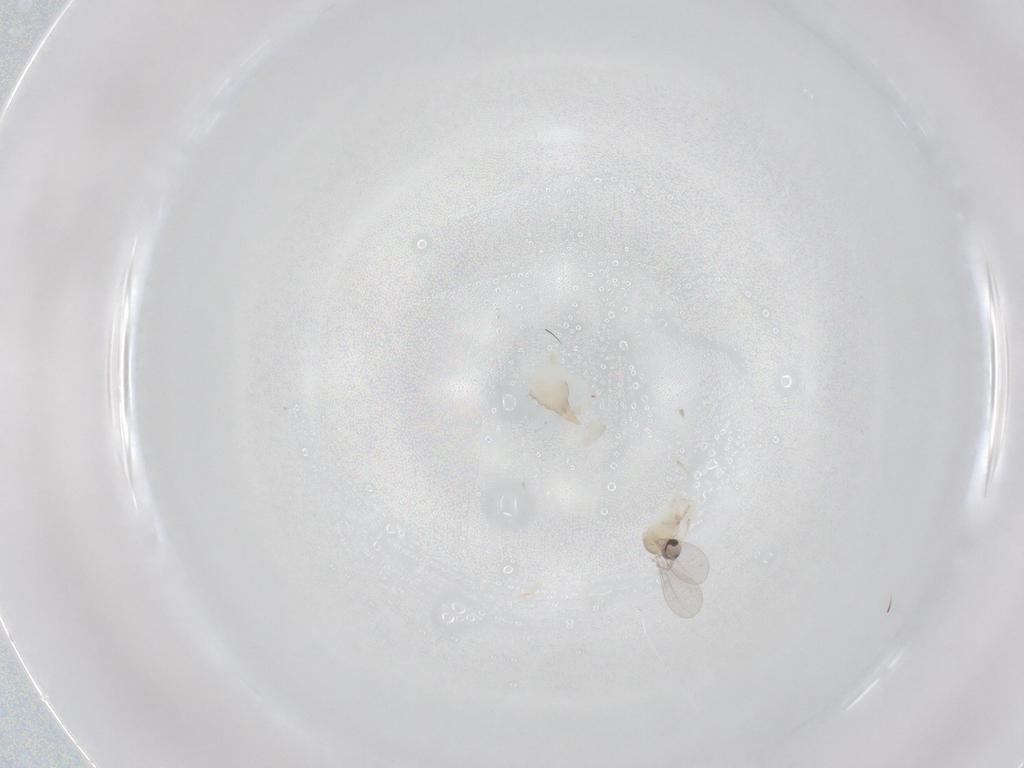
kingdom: Animalia
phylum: Arthropoda
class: Insecta
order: Diptera
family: Cecidomyiidae
